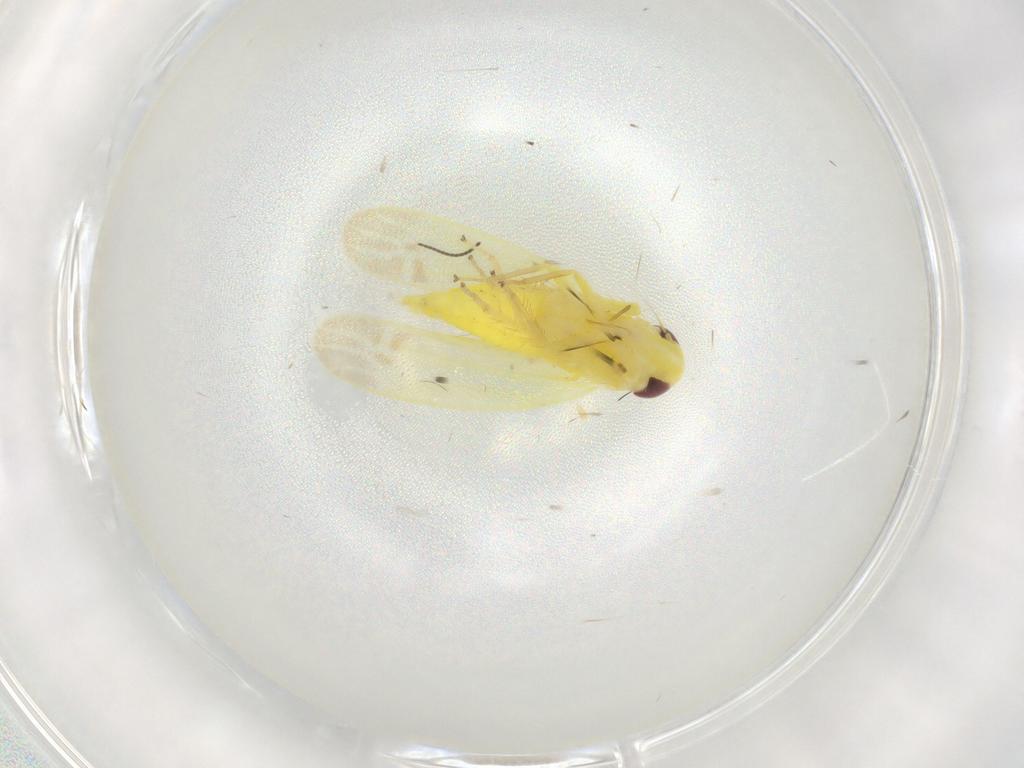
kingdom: Animalia
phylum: Arthropoda
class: Insecta
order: Hemiptera
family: Cicadellidae
